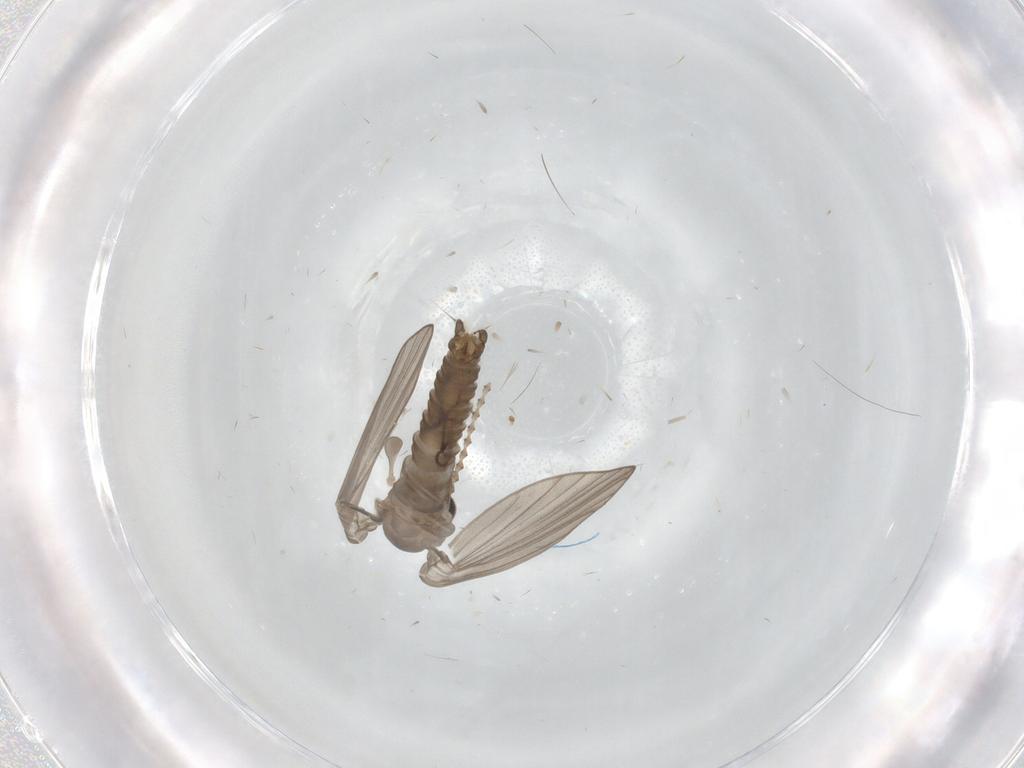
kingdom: Animalia
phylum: Arthropoda
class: Insecta
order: Diptera
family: Psychodidae
